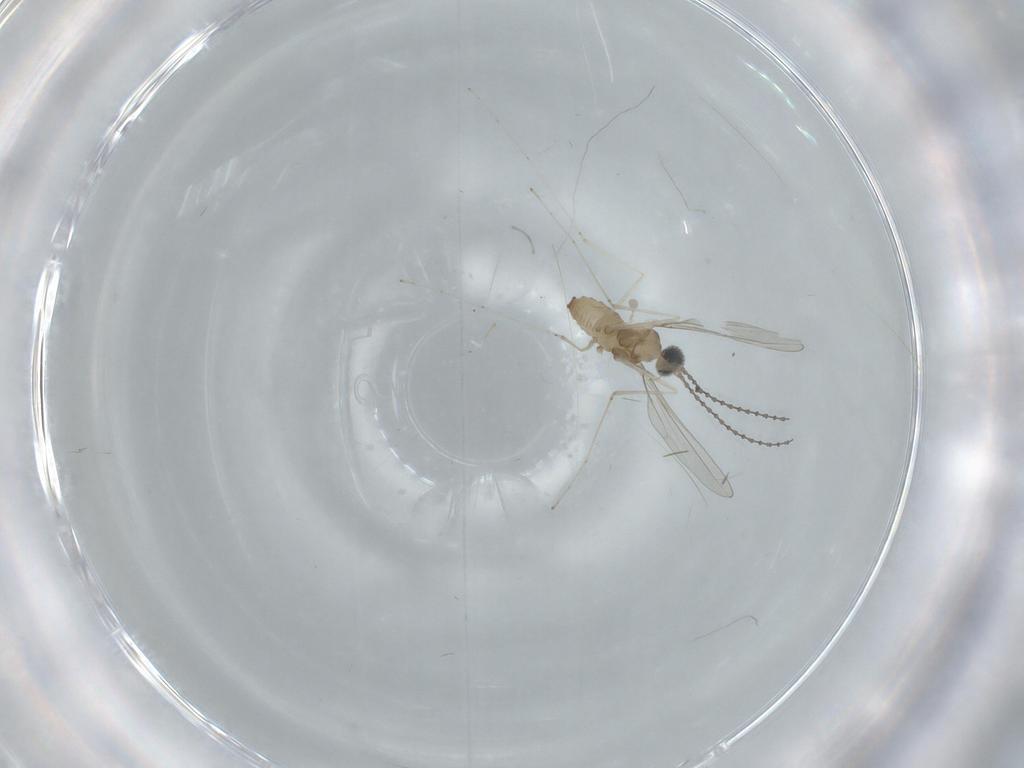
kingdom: Animalia
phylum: Arthropoda
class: Insecta
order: Diptera
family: Cecidomyiidae
